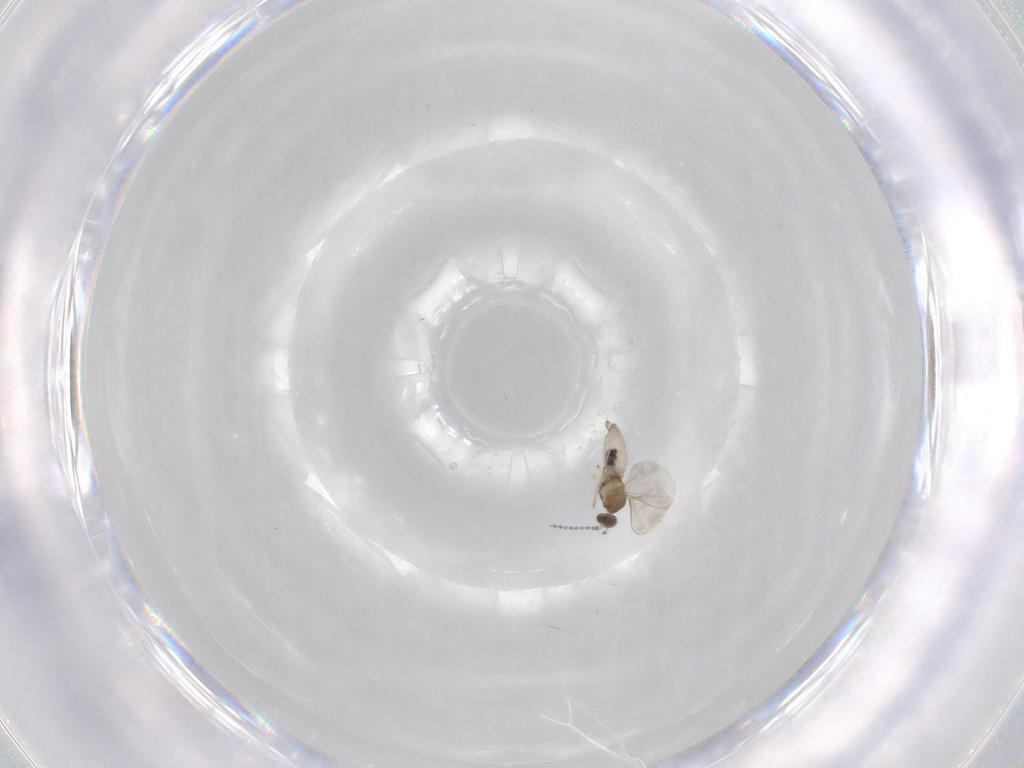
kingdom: Animalia
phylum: Arthropoda
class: Insecta
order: Diptera
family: Cecidomyiidae
